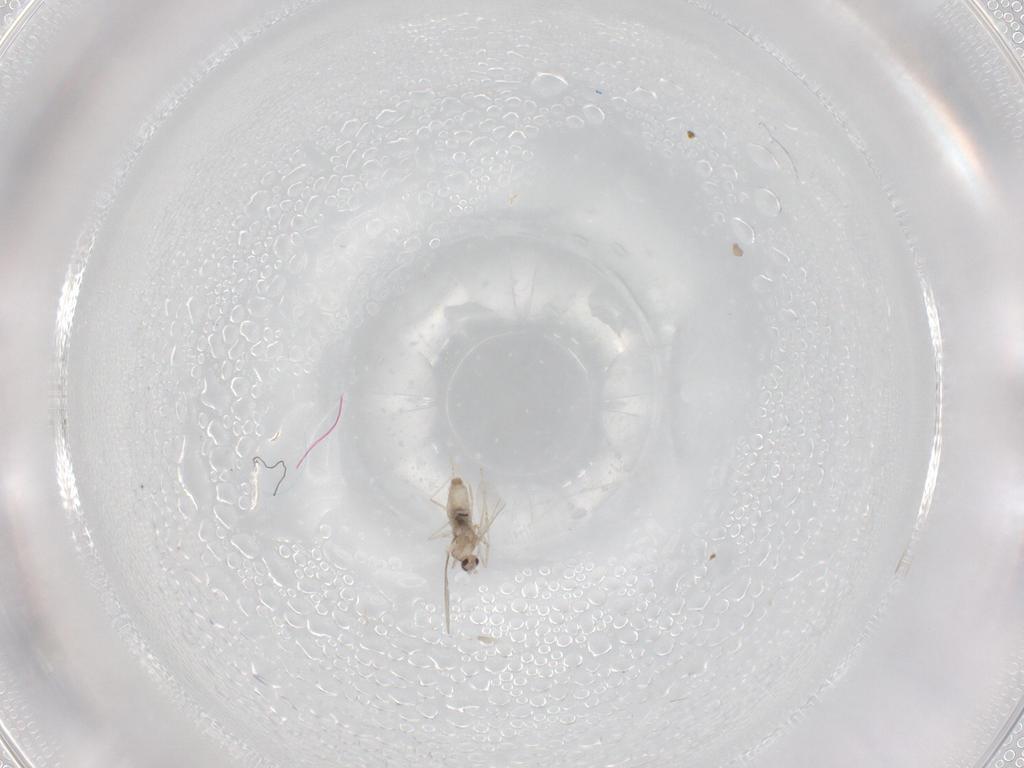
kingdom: Animalia
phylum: Arthropoda
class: Insecta
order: Diptera
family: Cecidomyiidae
